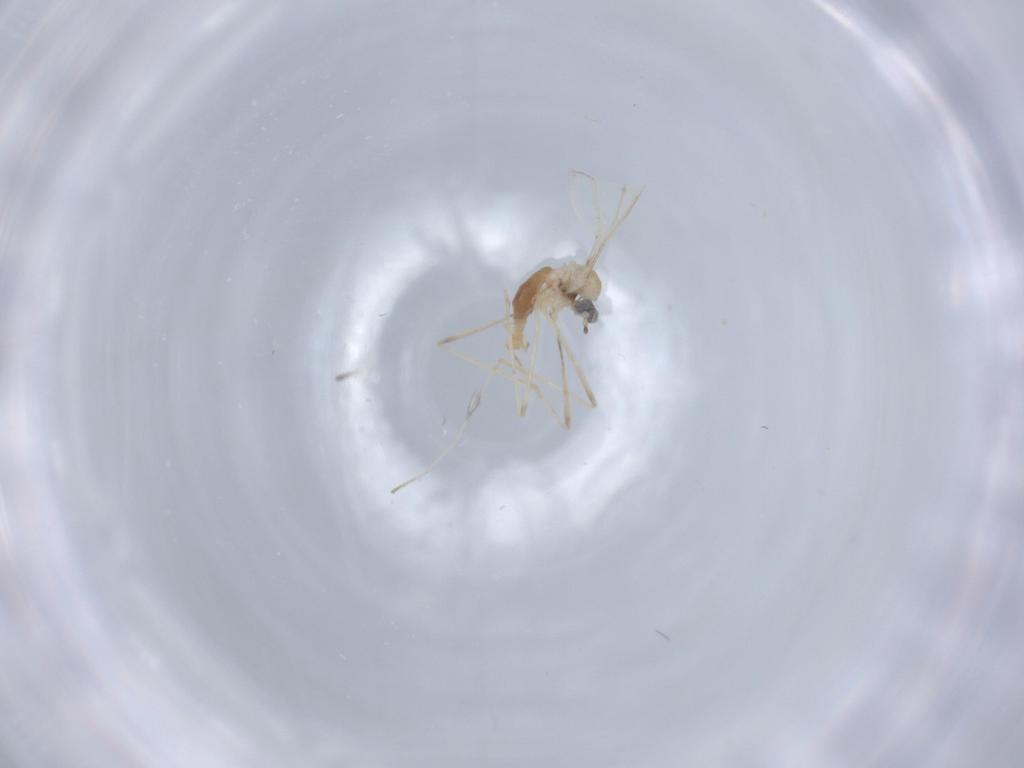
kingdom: Animalia
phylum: Arthropoda
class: Insecta
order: Diptera
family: Cecidomyiidae
